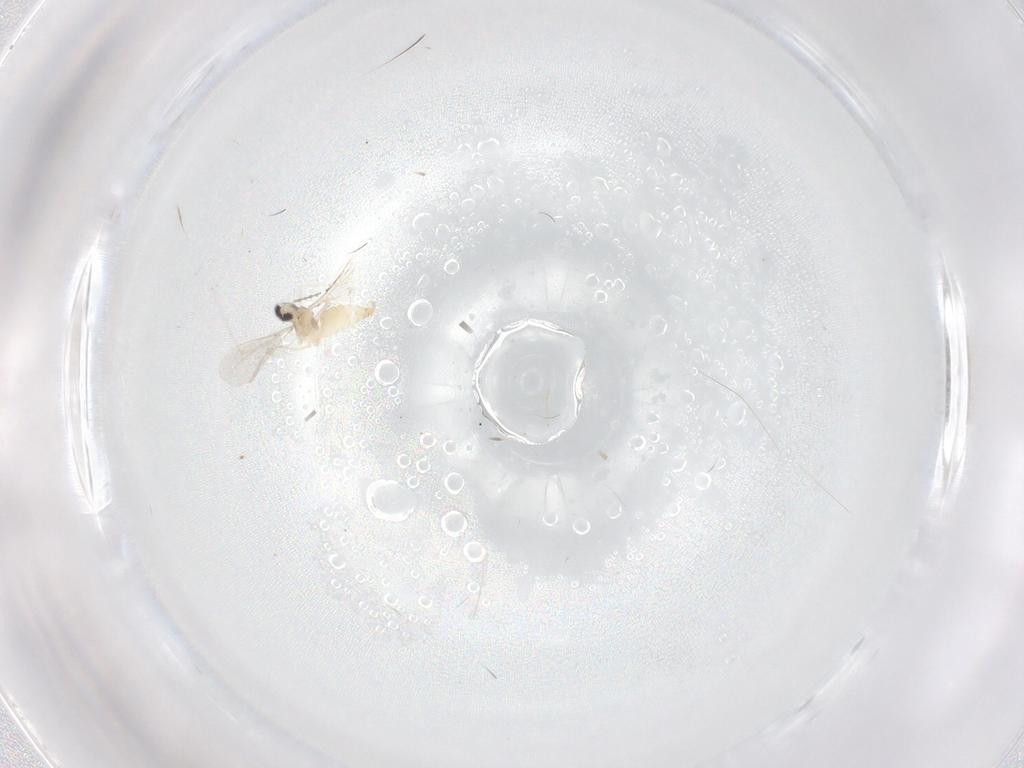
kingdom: Animalia
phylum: Arthropoda
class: Insecta
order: Diptera
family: Cecidomyiidae
